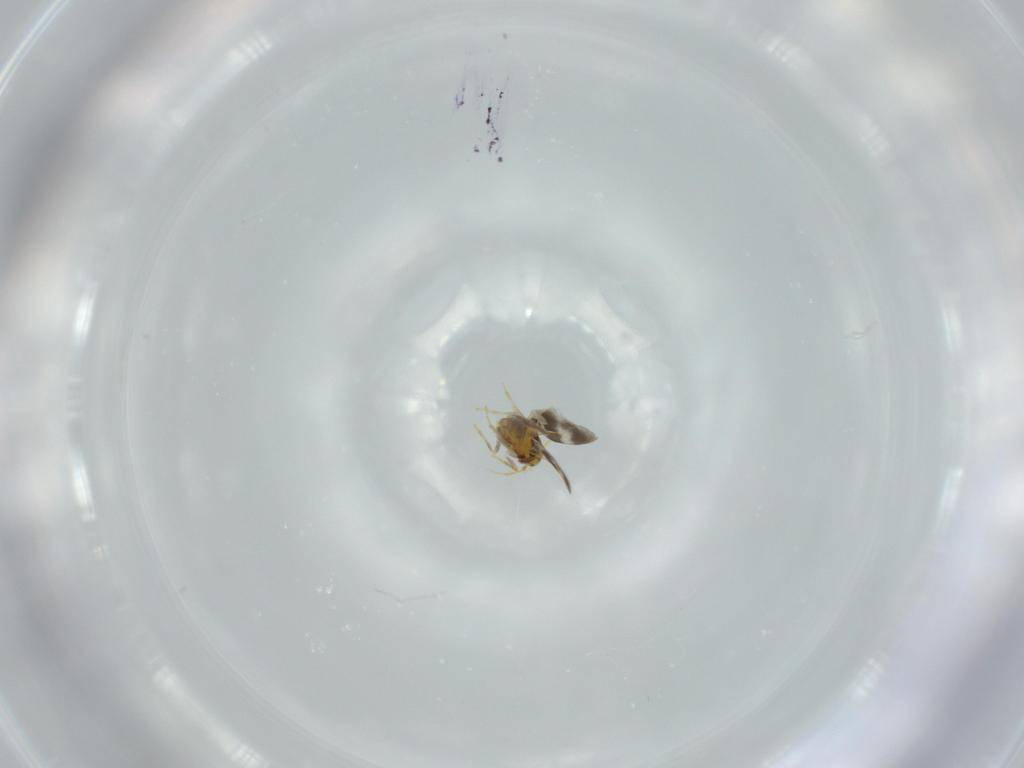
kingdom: Animalia
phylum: Arthropoda
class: Insecta
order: Hemiptera
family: Aleyrodidae
